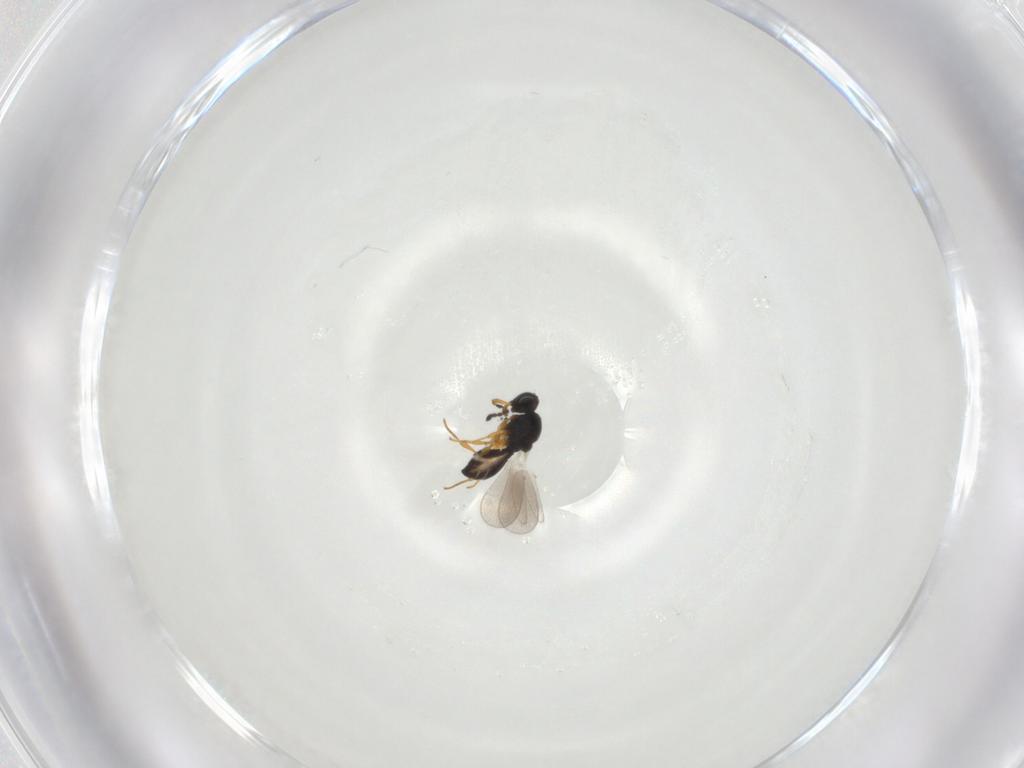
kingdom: Animalia
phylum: Arthropoda
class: Insecta
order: Hymenoptera
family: Platygastridae
